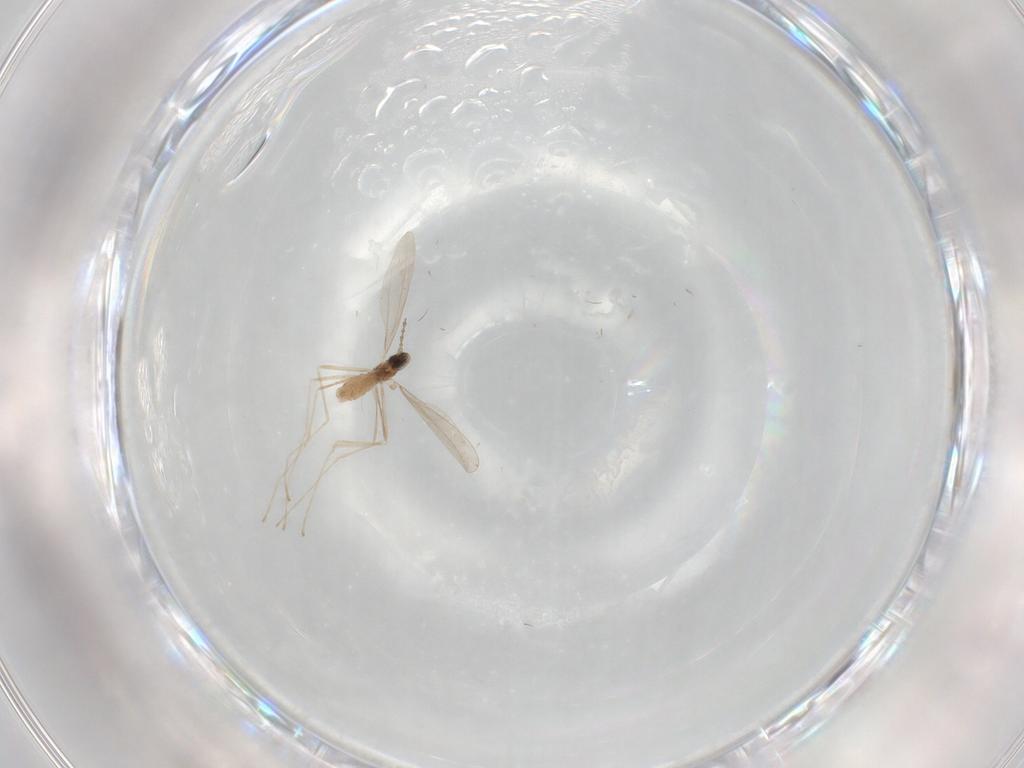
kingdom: Animalia
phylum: Arthropoda
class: Insecta
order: Diptera
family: Cecidomyiidae
